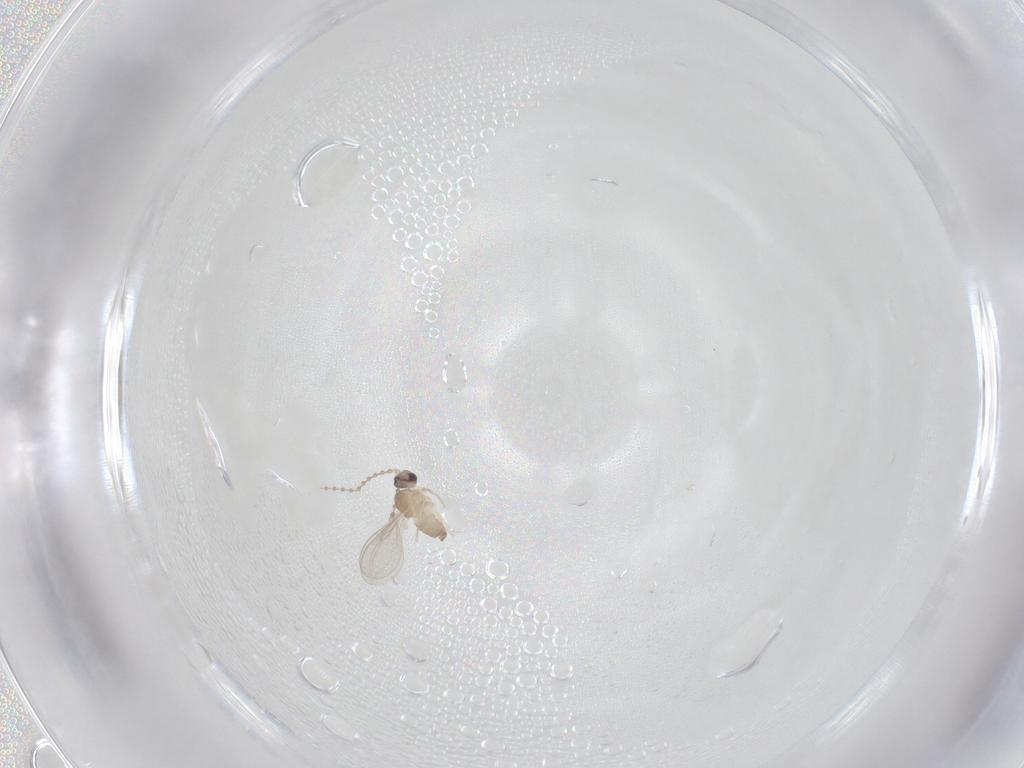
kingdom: Animalia
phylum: Arthropoda
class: Insecta
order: Diptera
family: Cecidomyiidae
